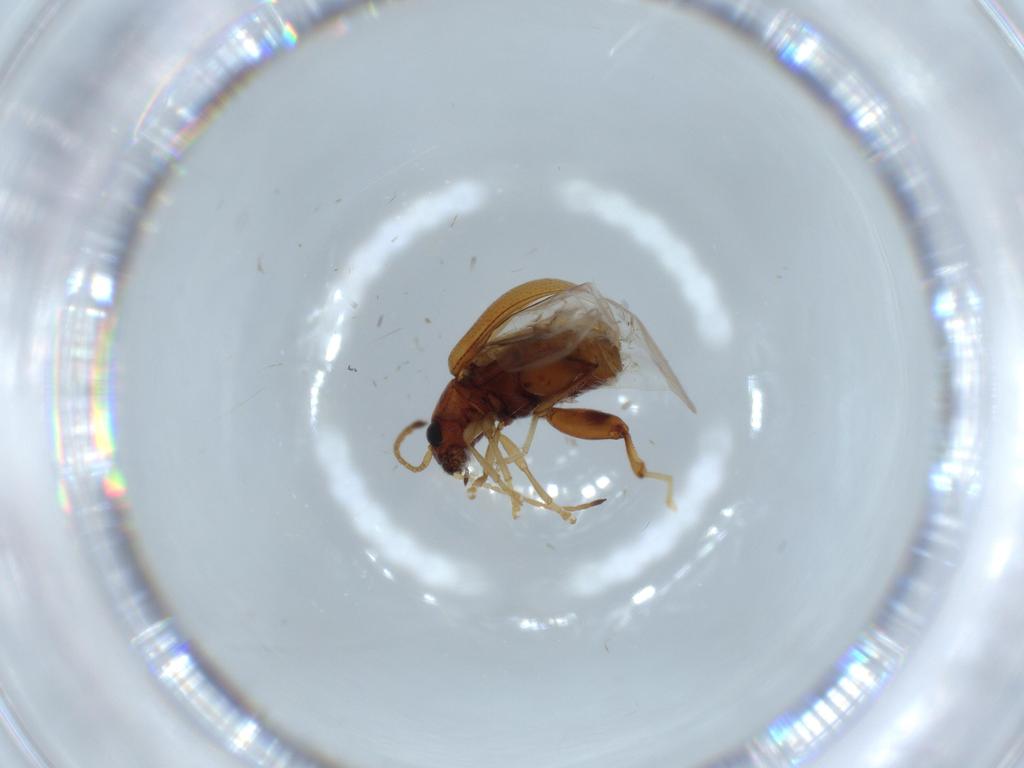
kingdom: Animalia
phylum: Arthropoda
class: Insecta
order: Coleoptera
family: Chrysomelidae
